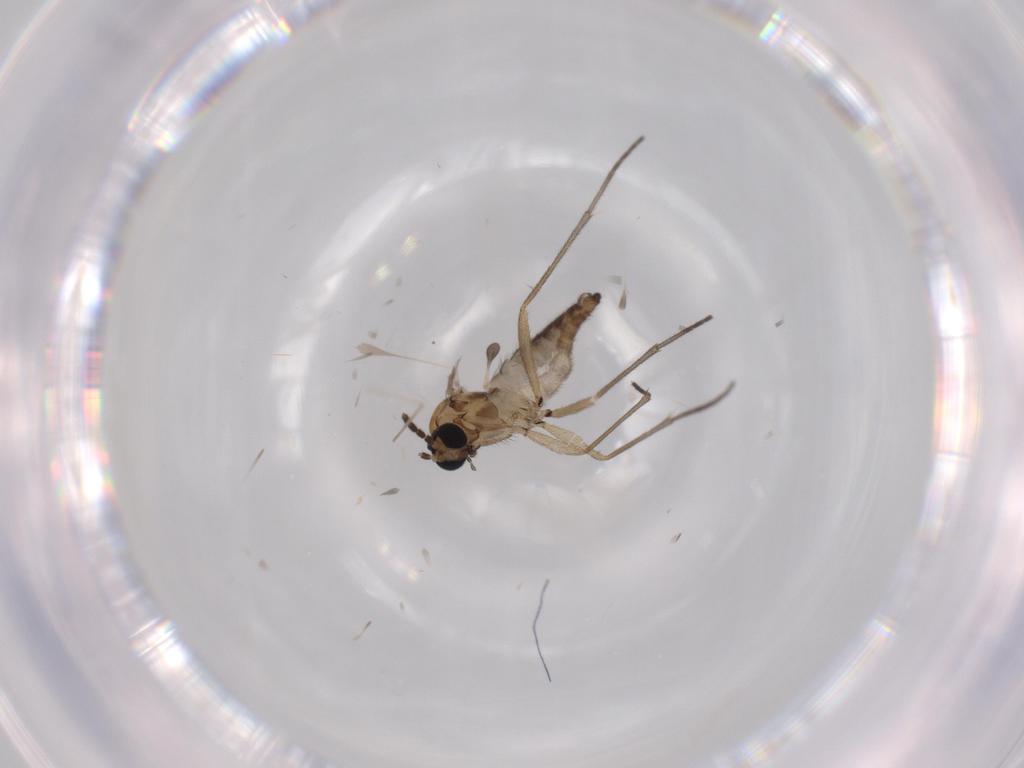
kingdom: Animalia
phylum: Arthropoda
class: Insecta
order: Diptera
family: Sciaridae
